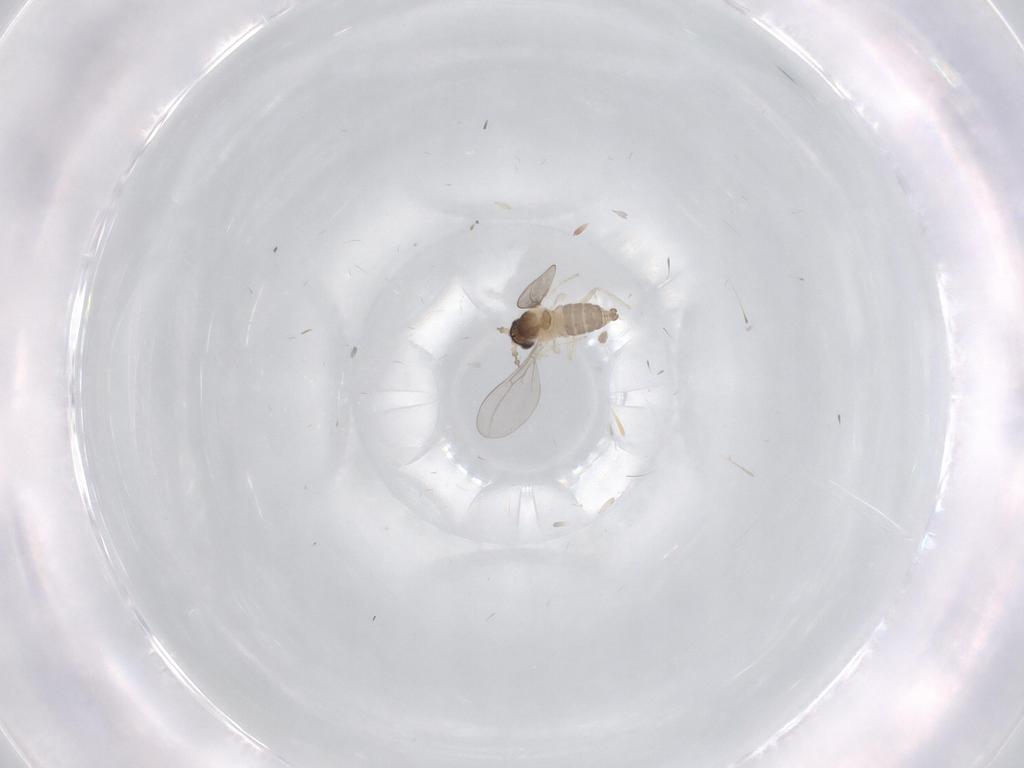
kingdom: Animalia
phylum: Arthropoda
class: Insecta
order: Diptera
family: Cecidomyiidae
